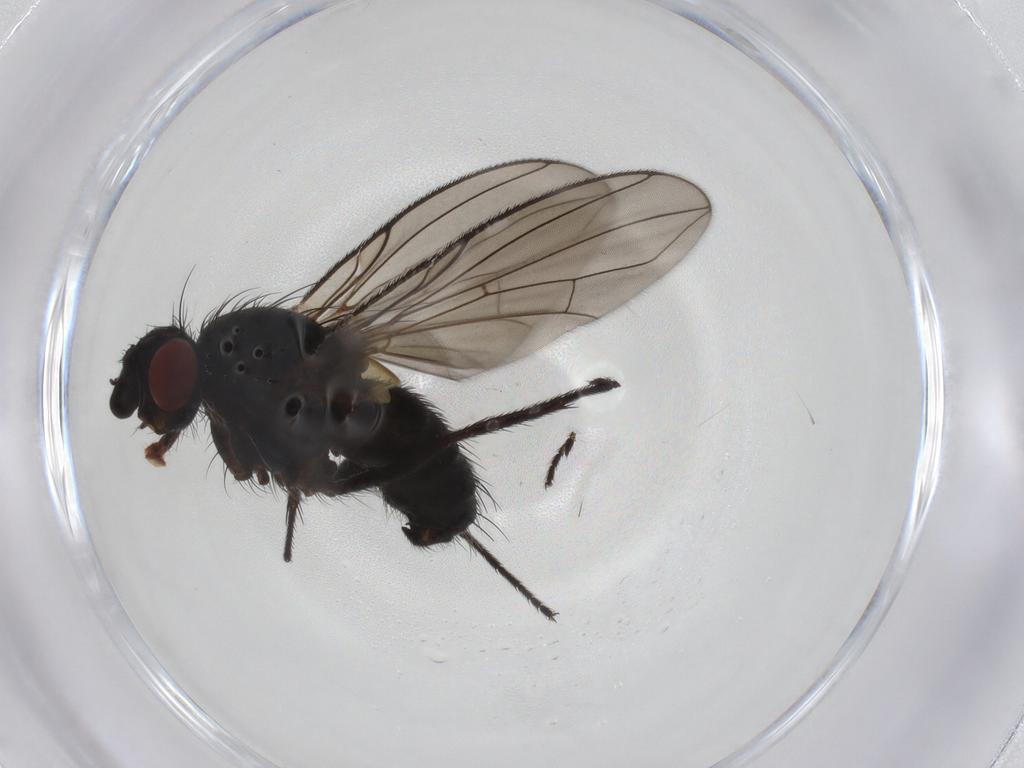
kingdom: Animalia
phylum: Arthropoda
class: Insecta
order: Diptera
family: Tachinidae
